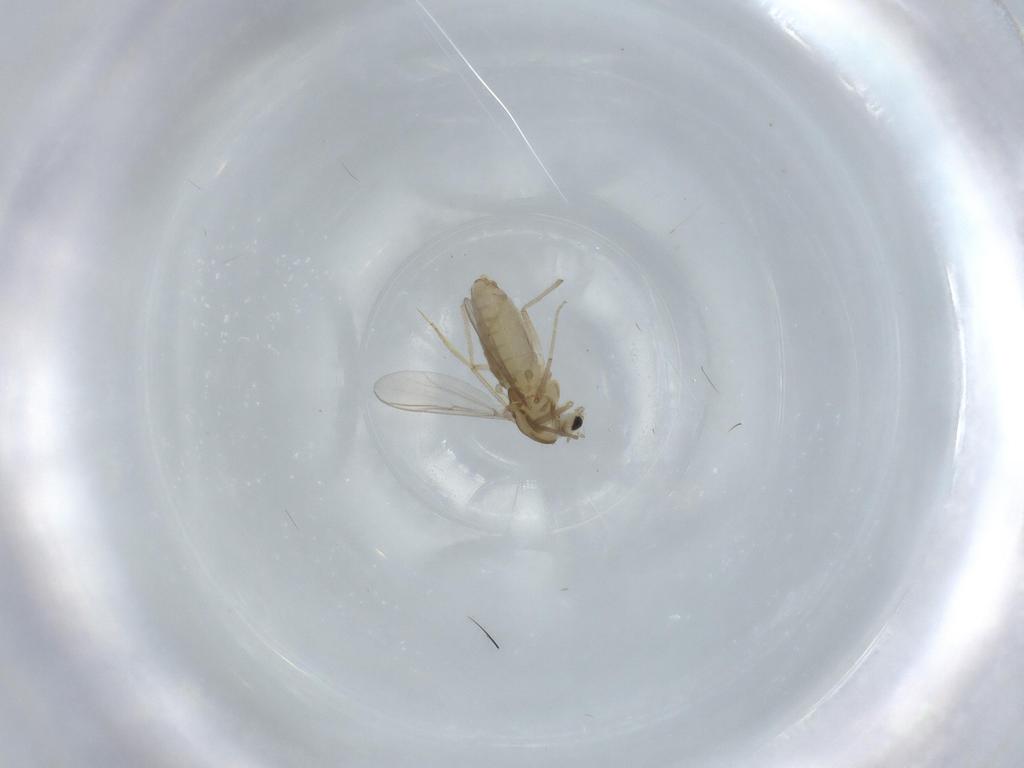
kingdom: Animalia
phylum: Arthropoda
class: Insecta
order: Diptera
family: Chironomidae
